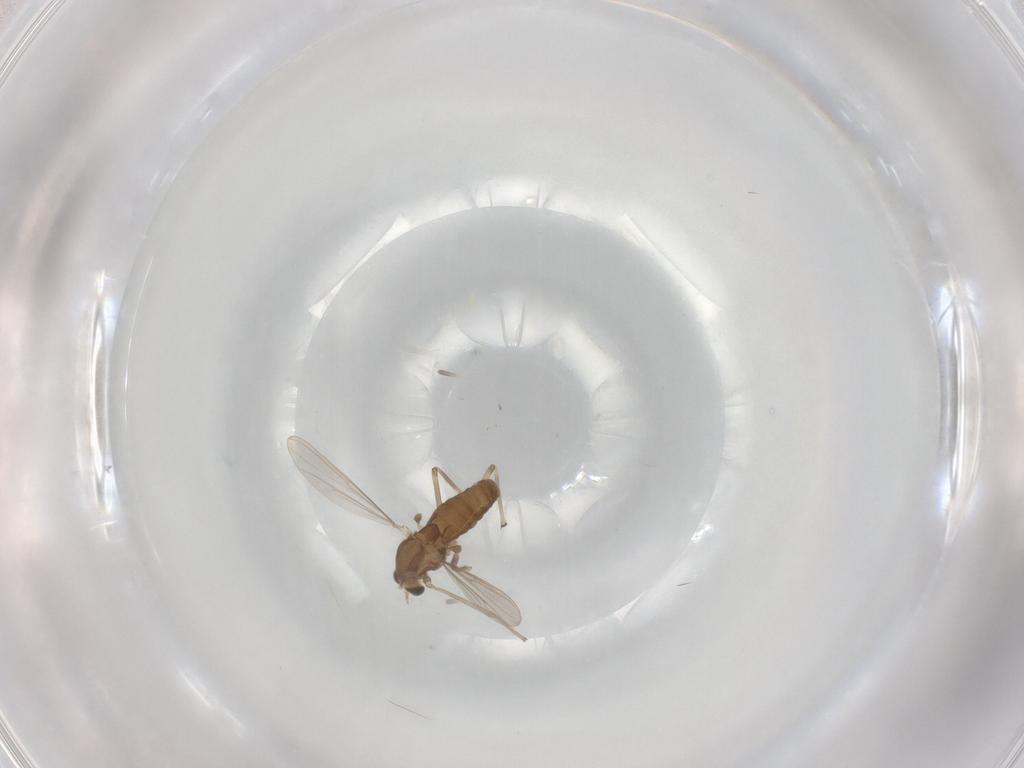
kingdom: Animalia
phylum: Arthropoda
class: Insecta
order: Diptera
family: Chironomidae
